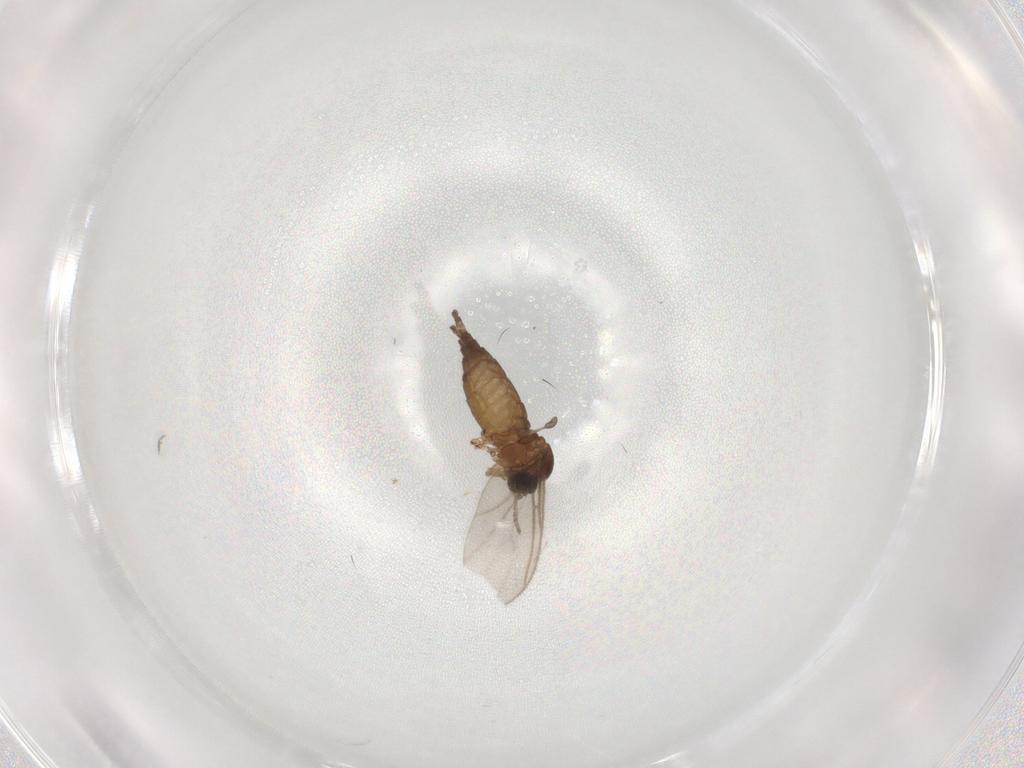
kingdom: Animalia
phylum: Arthropoda
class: Insecta
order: Diptera
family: Sciaridae
